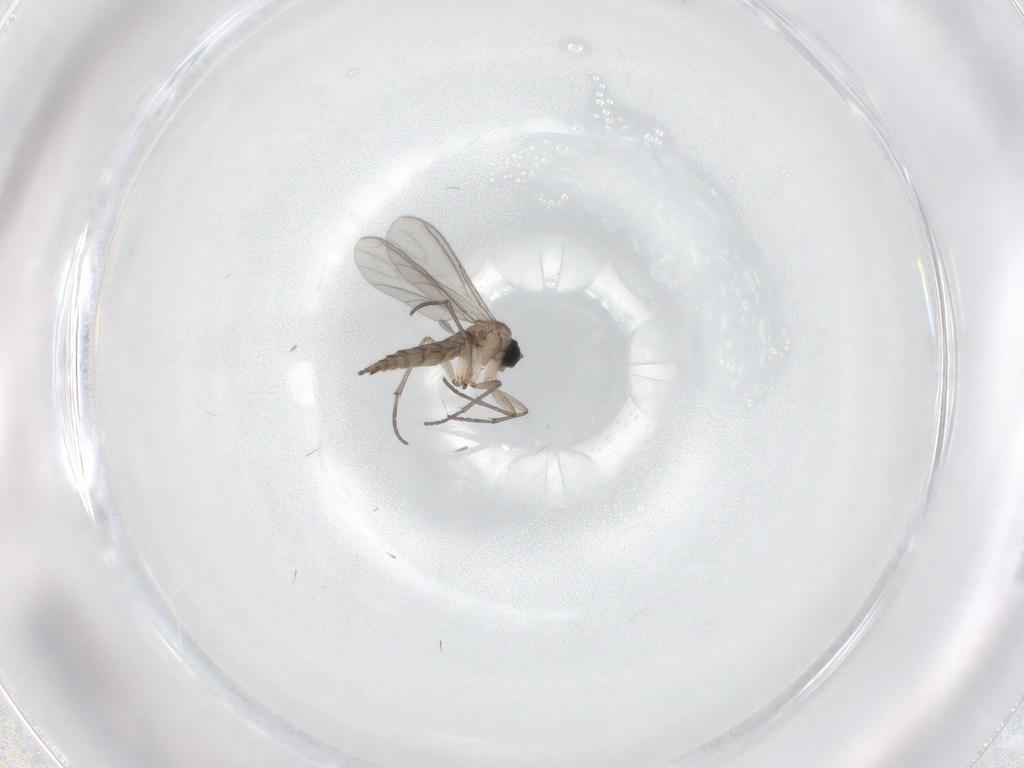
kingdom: Animalia
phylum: Arthropoda
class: Insecta
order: Diptera
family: Sciaridae
